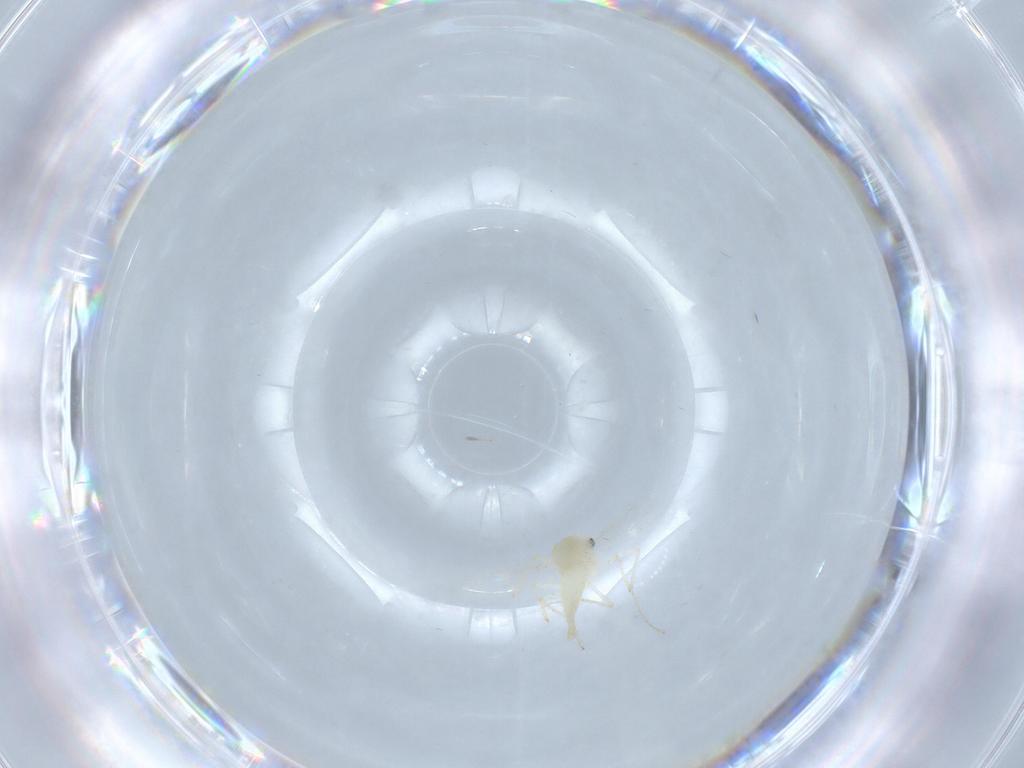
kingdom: Animalia
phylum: Arthropoda
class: Insecta
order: Diptera
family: Chironomidae
